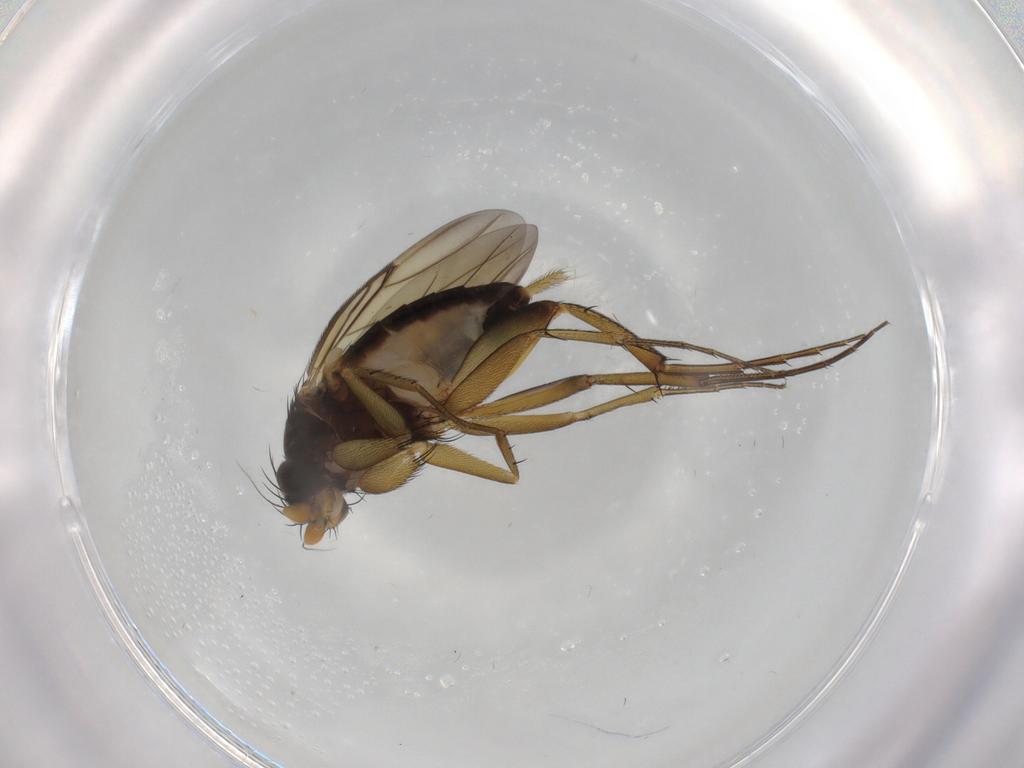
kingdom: Animalia
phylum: Arthropoda
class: Insecta
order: Diptera
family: Phoridae
